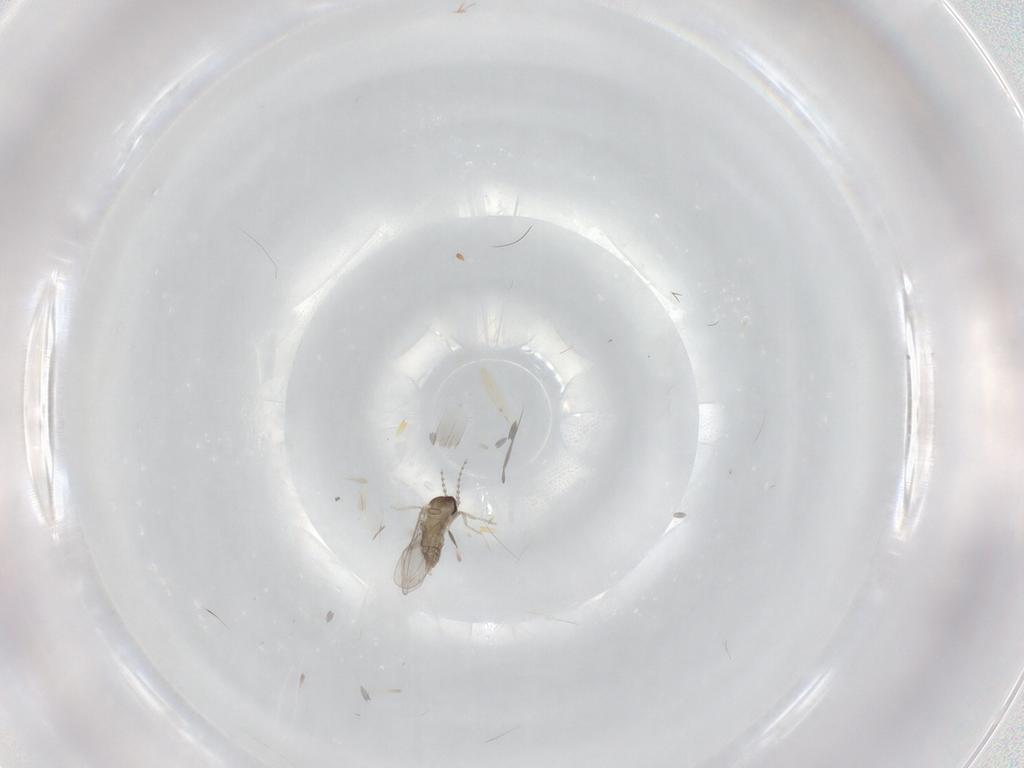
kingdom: Animalia
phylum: Arthropoda
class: Insecta
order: Diptera
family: Cecidomyiidae
